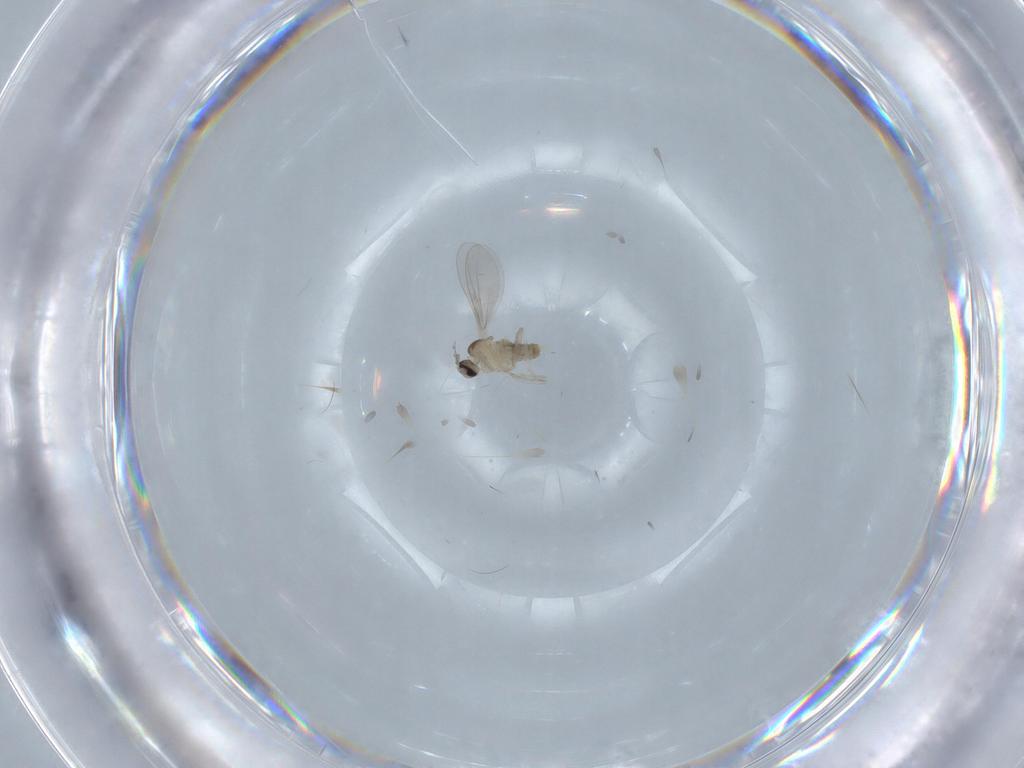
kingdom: Animalia
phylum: Arthropoda
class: Insecta
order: Diptera
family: Cecidomyiidae
